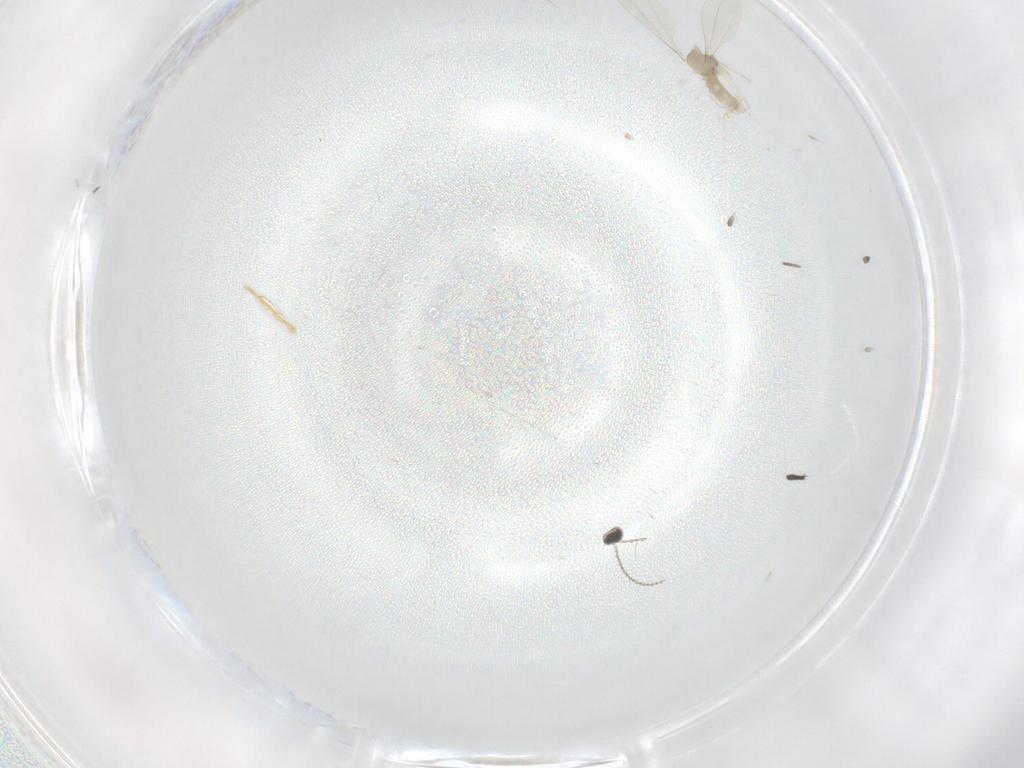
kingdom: Animalia
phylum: Arthropoda
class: Insecta
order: Diptera
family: Cecidomyiidae
